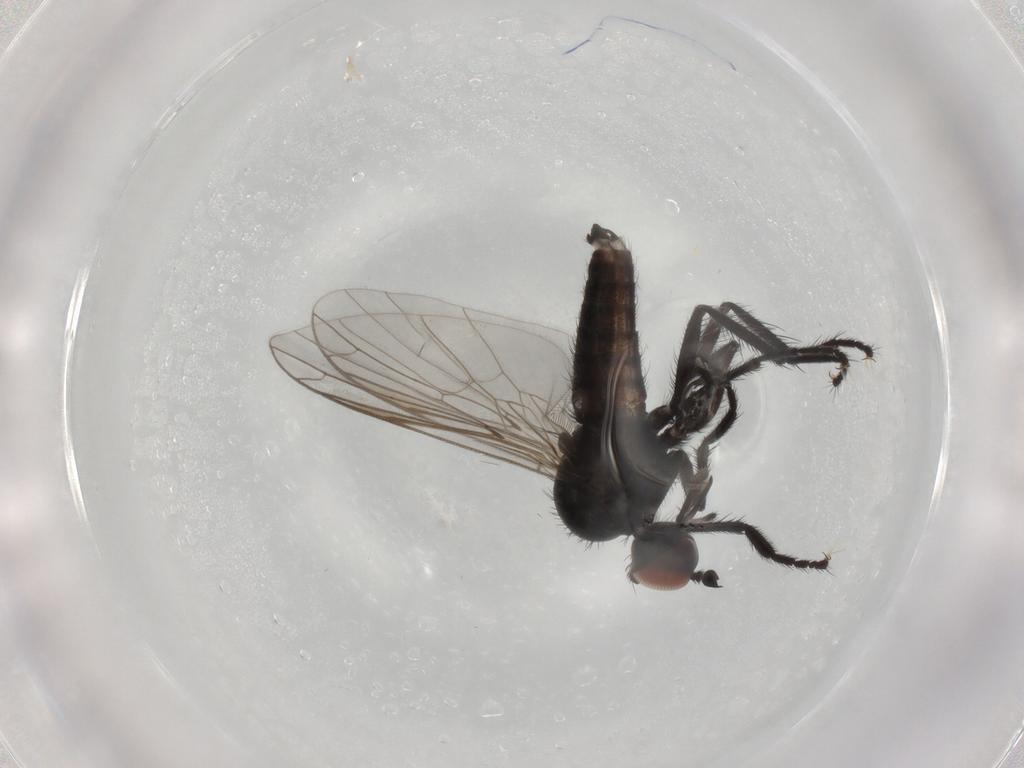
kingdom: Animalia
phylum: Arthropoda
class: Insecta
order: Diptera
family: Empididae
